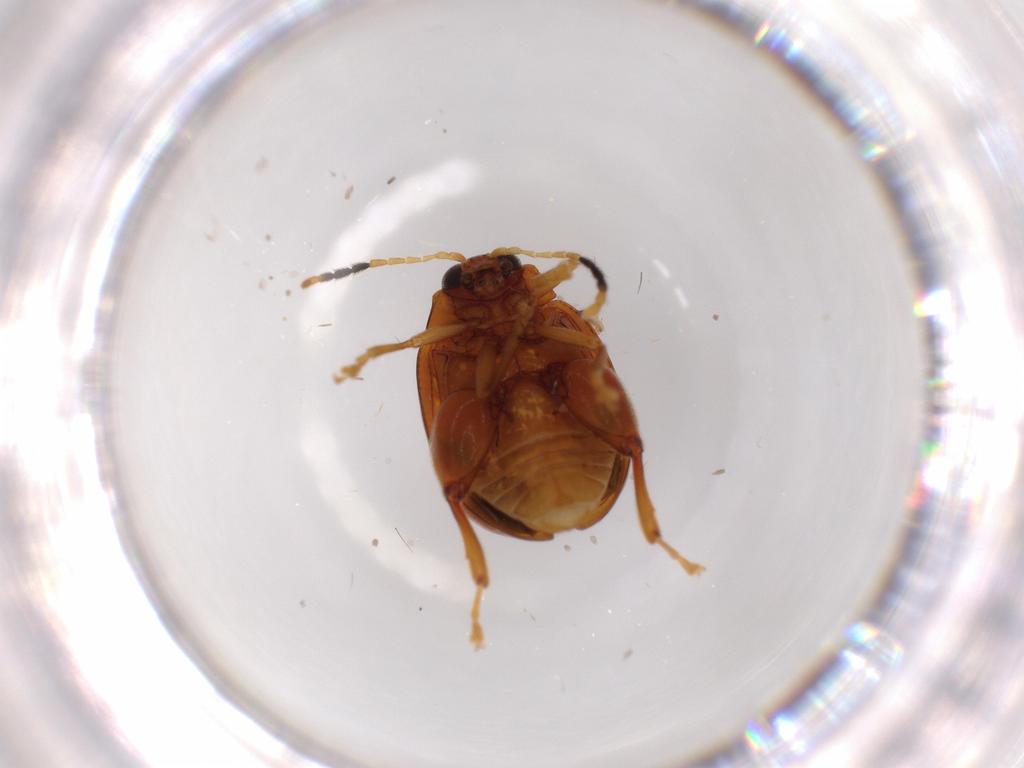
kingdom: Animalia
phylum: Arthropoda
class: Insecta
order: Coleoptera
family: Chrysomelidae
